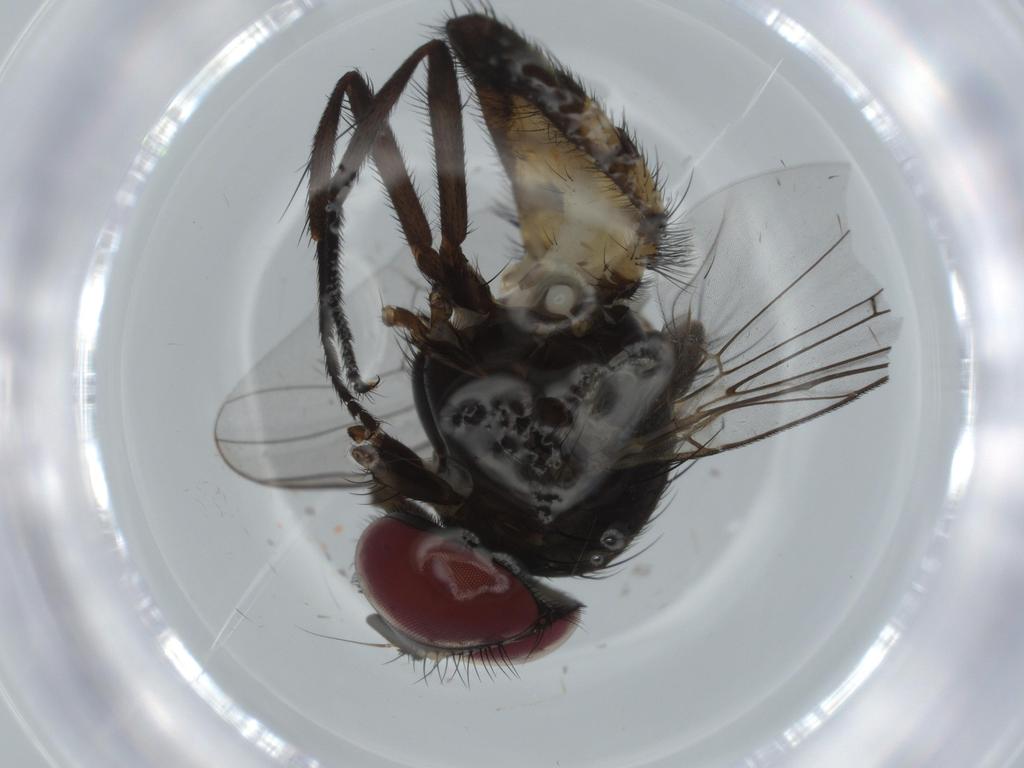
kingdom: Animalia
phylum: Arthropoda
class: Insecta
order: Diptera
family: Fannia
